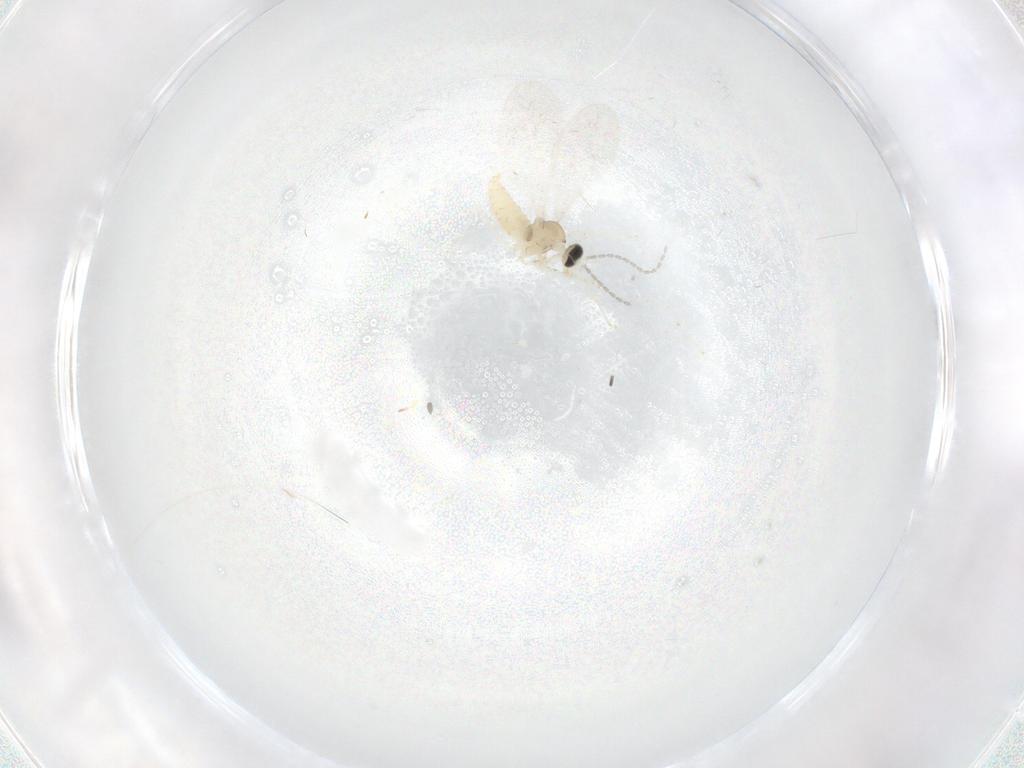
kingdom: Animalia
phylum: Arthropoda
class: Insecta
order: Diptera
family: Cecidomyiidae
